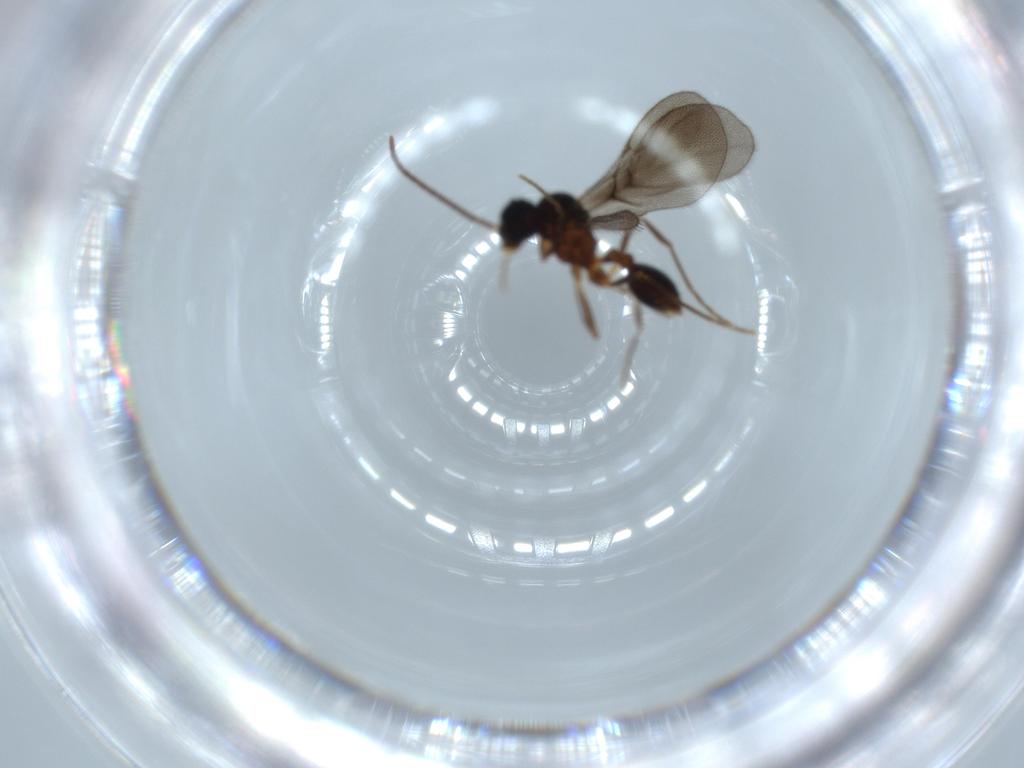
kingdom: Animalia
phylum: Arthropoda
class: Insecta
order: Hymenoptera
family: Formicidae
